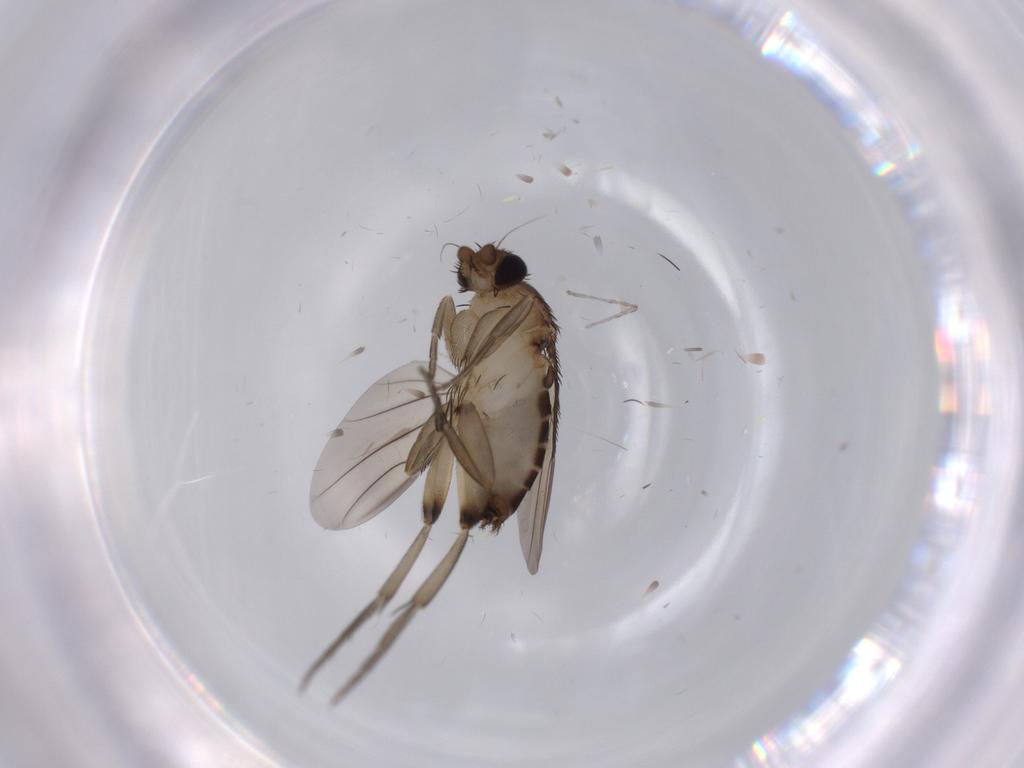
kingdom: Animalia
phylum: Arthropoda
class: Insecta
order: Diptera
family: Phoridae
